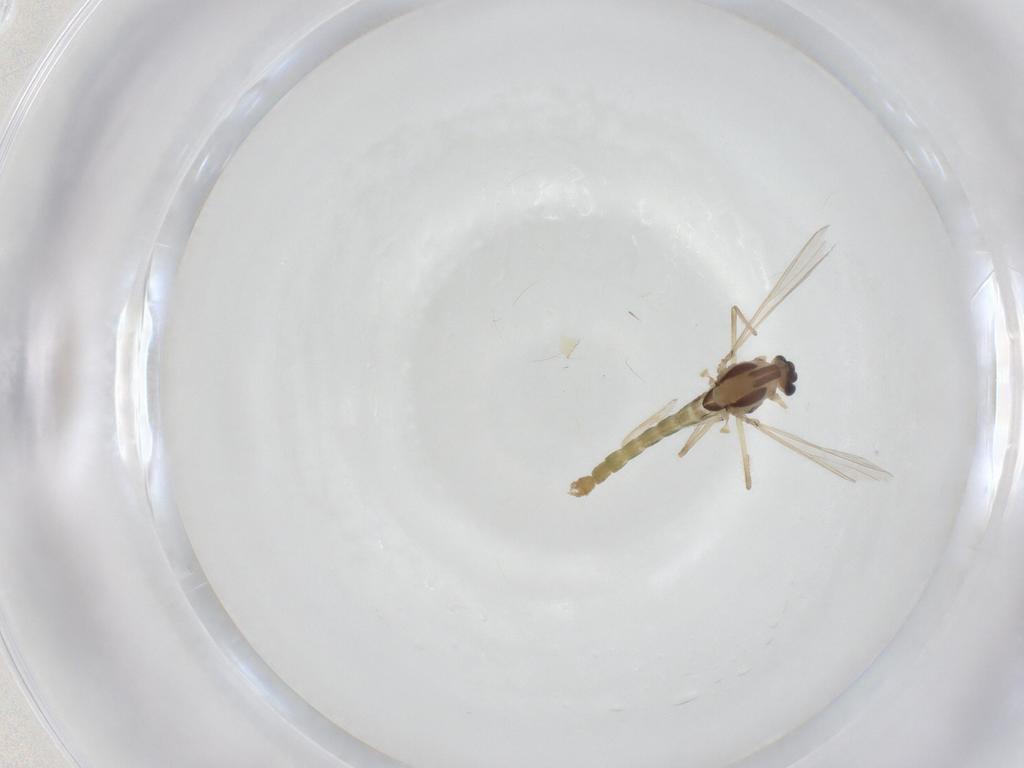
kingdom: Animalia
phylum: Arthropoda
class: Insecta
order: Diptera
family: Chironomidae
